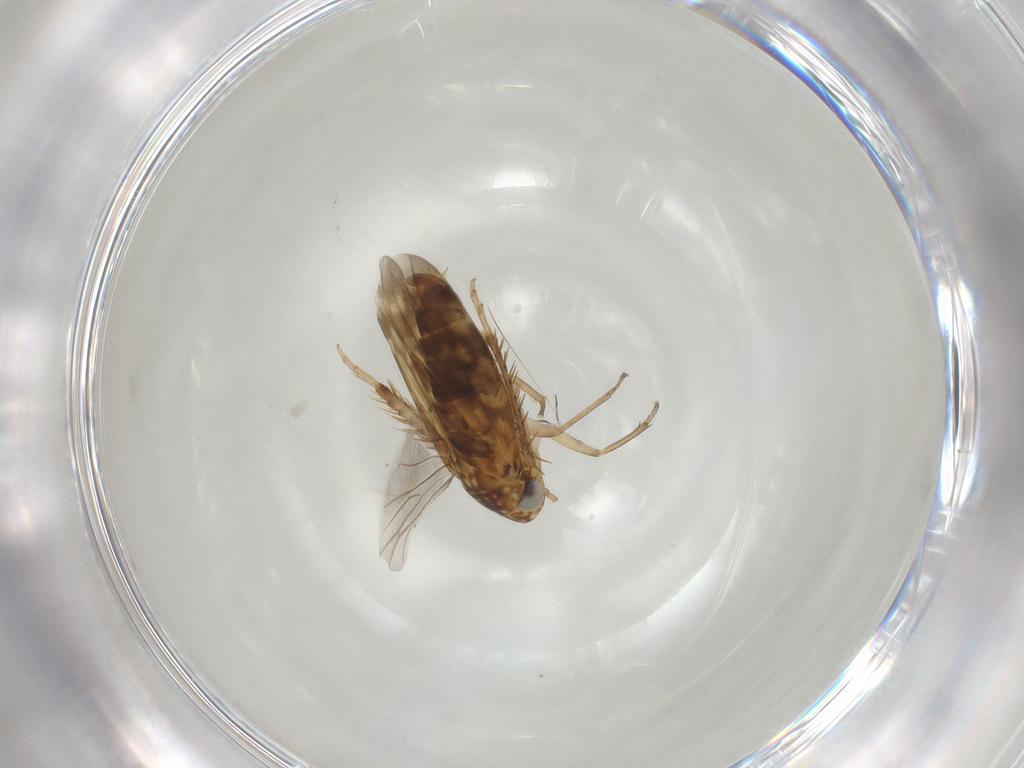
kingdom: Animalia
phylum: Arthropoda
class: Insecta
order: Hemiptera
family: Cicadellidae
